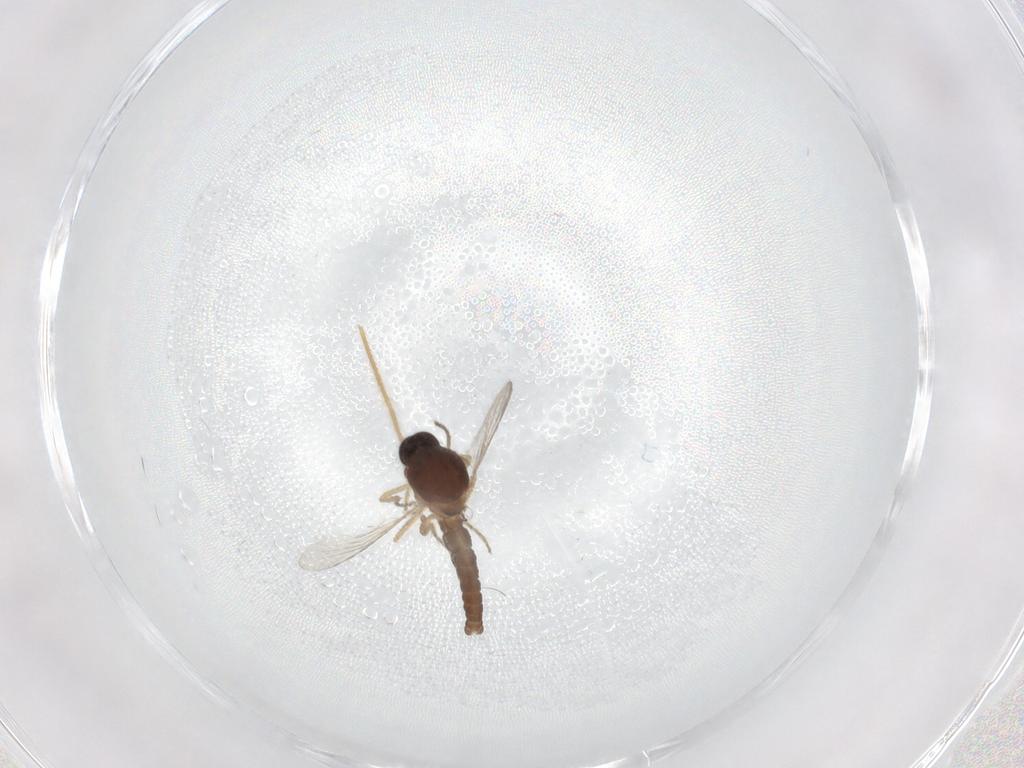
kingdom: Animalia
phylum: Arthropoda
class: Insecta
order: Diptera
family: Ceratopogonidae
